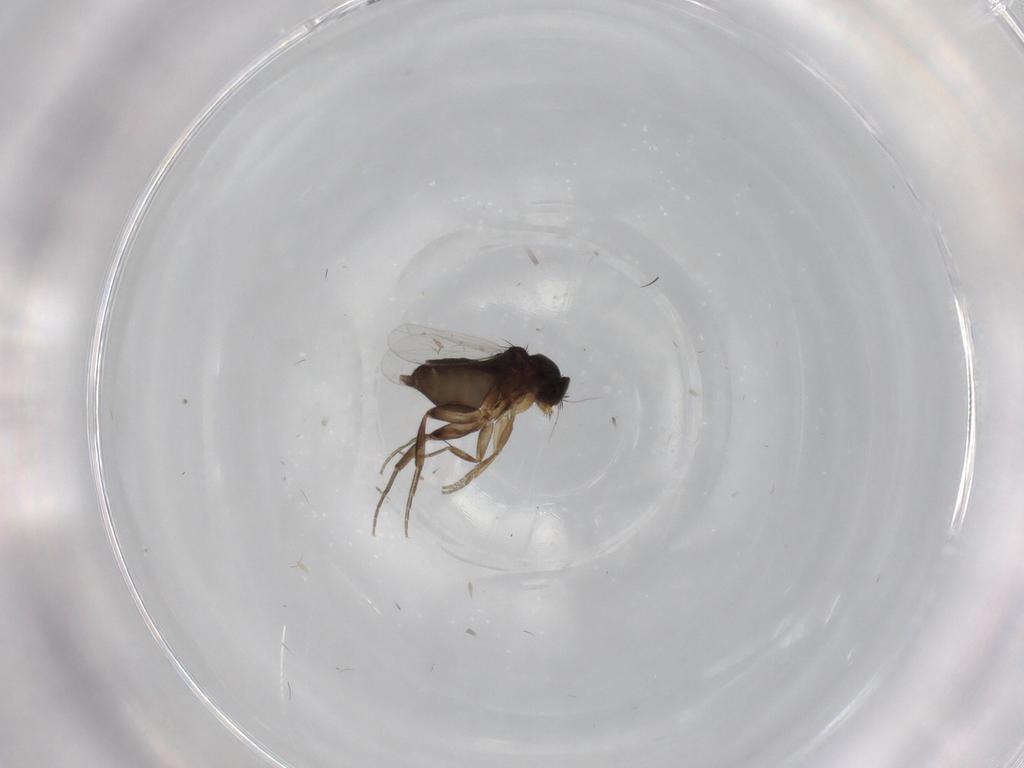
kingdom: Animalia
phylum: Arthropoda
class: Insecta
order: Diptera
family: Phoridae
